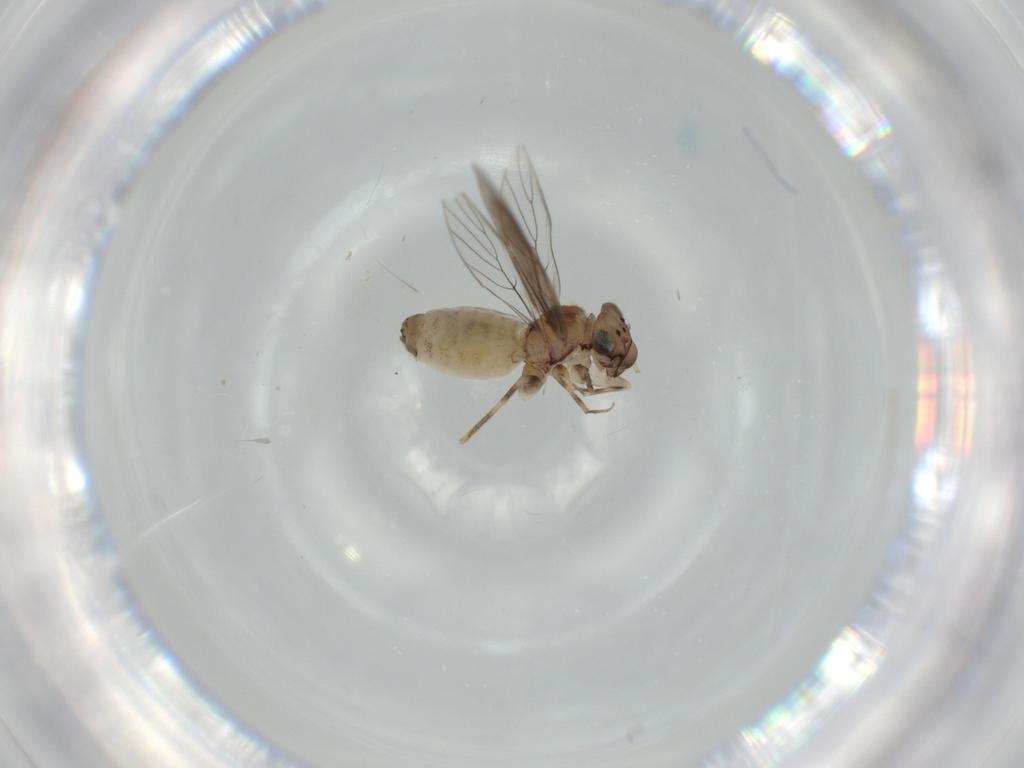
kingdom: Animalia
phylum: Arthropoda
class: Insecta
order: Psocodea
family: Lepidopsocidae
